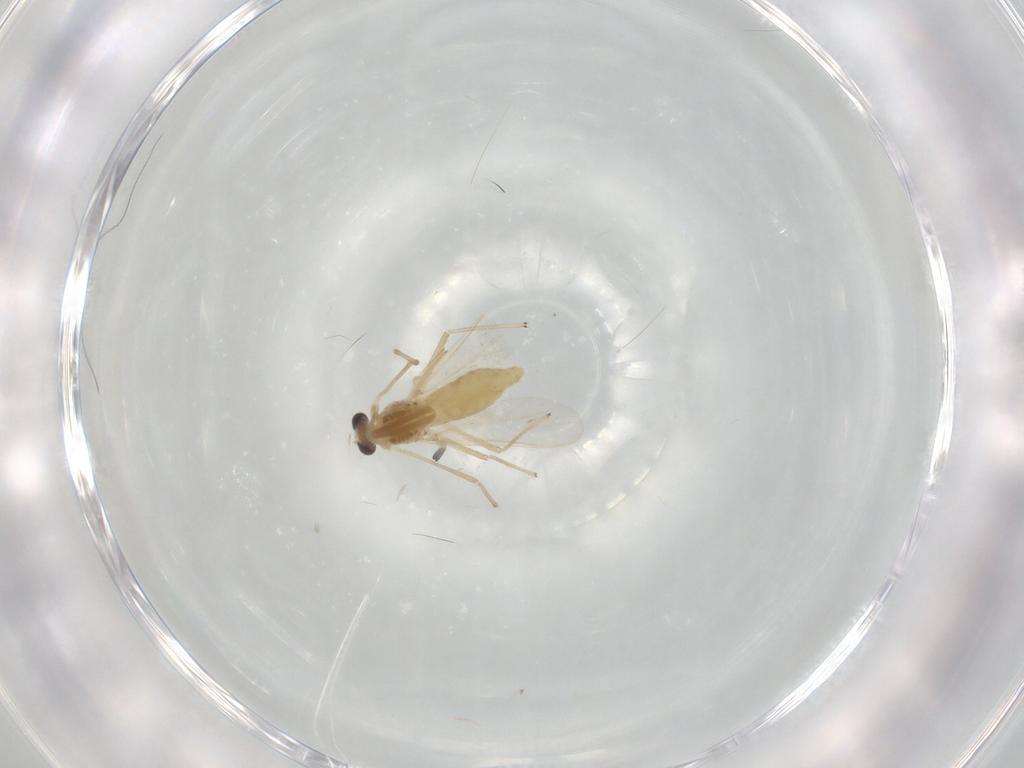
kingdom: Animalia
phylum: Arthropoda
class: Insecta
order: Diptera
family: Chironomidae
